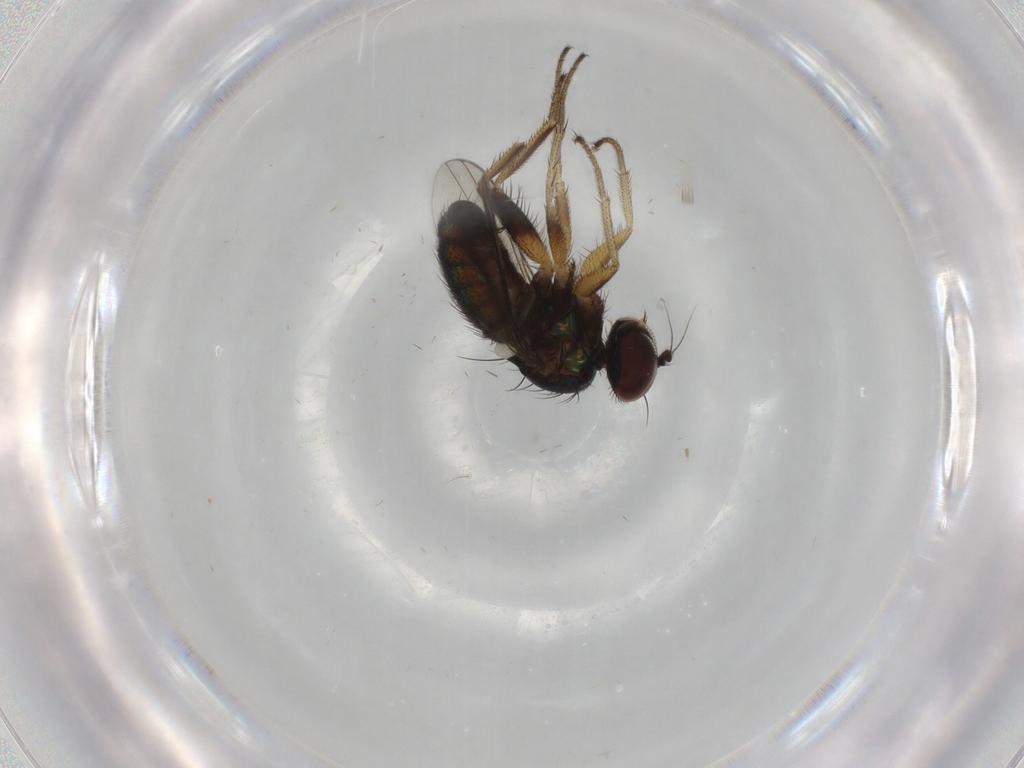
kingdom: Animalia
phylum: Arthropoda
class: Insecta
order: Diptera
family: Dolichopodidae
